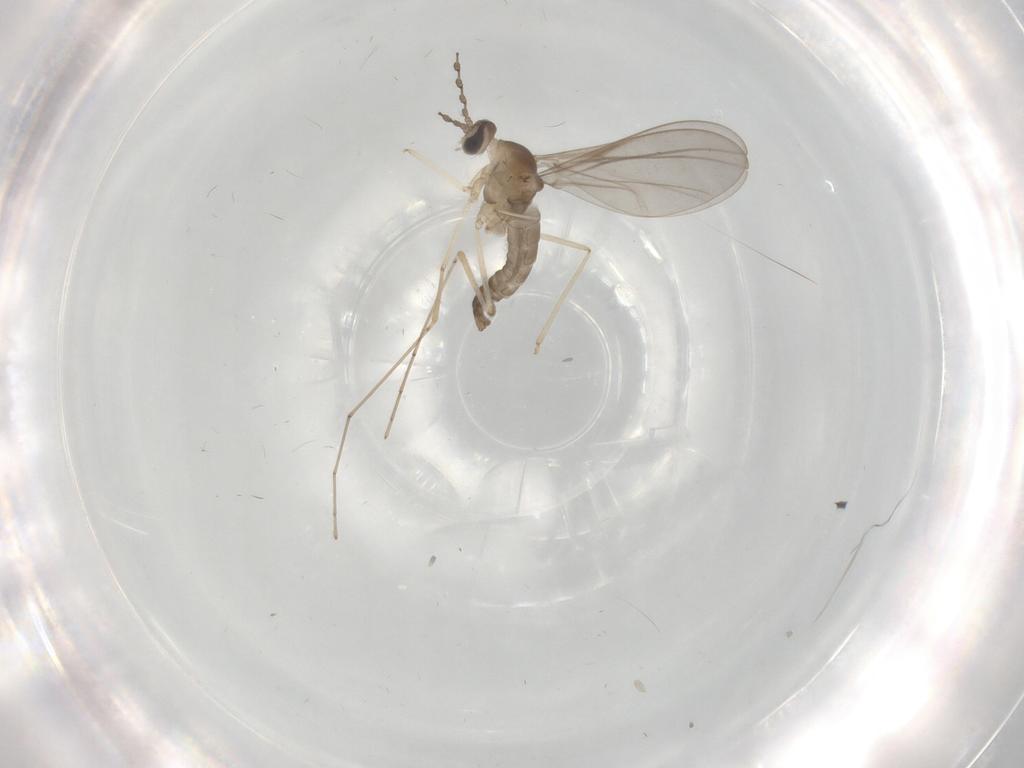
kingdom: Animalia
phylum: Arthropoda
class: Insecta
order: Diptera
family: Cecidomyiidae
